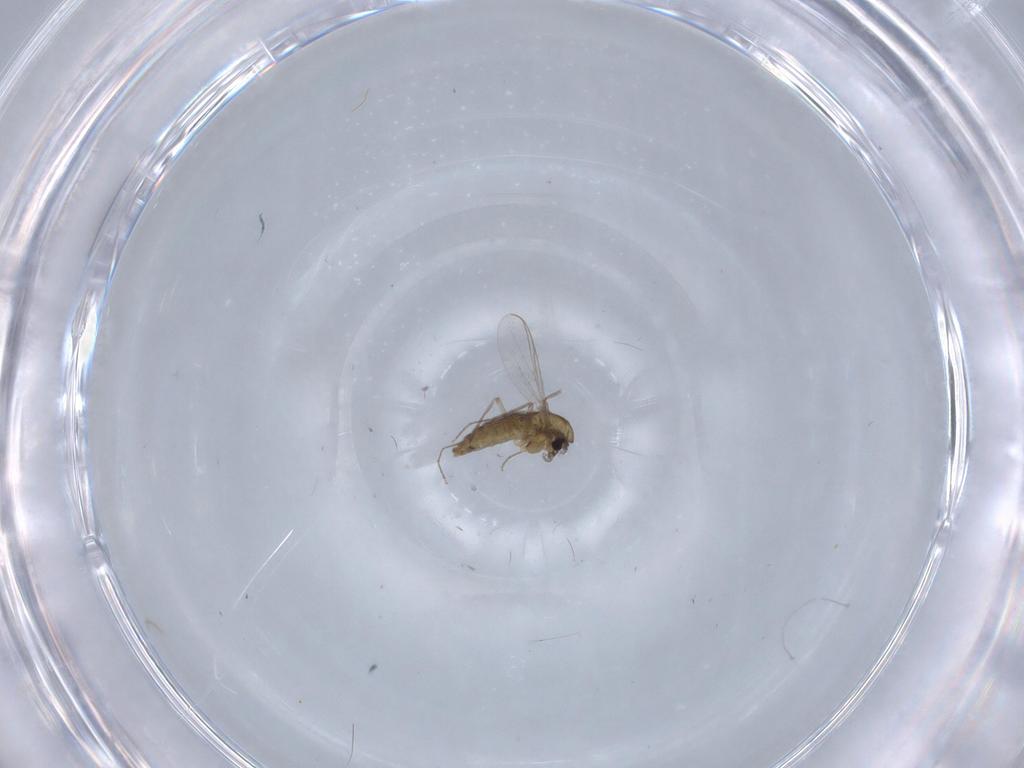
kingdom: Animalia
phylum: Arthropoda
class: Insecta
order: Diptera
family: Chironomidae
